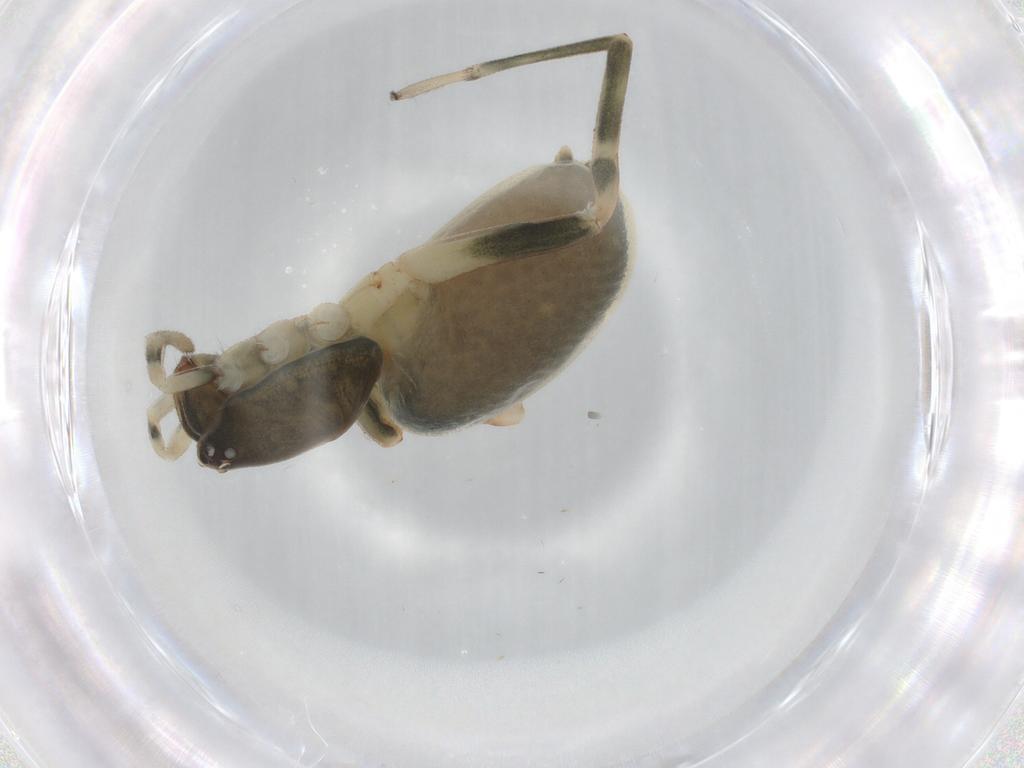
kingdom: Animalia
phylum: Arthropoda
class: Arachnida
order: Araneae
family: Trachelidae
